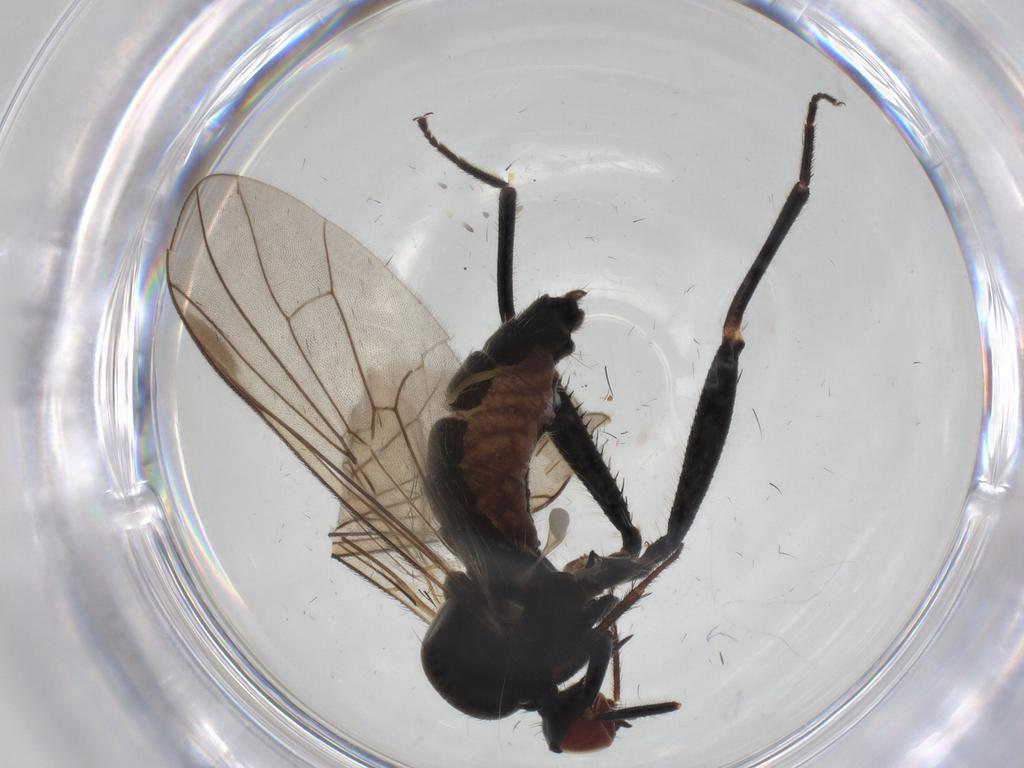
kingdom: Animalia
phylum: Arthropoda
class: Insecta
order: Diptera
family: Hybotidae
